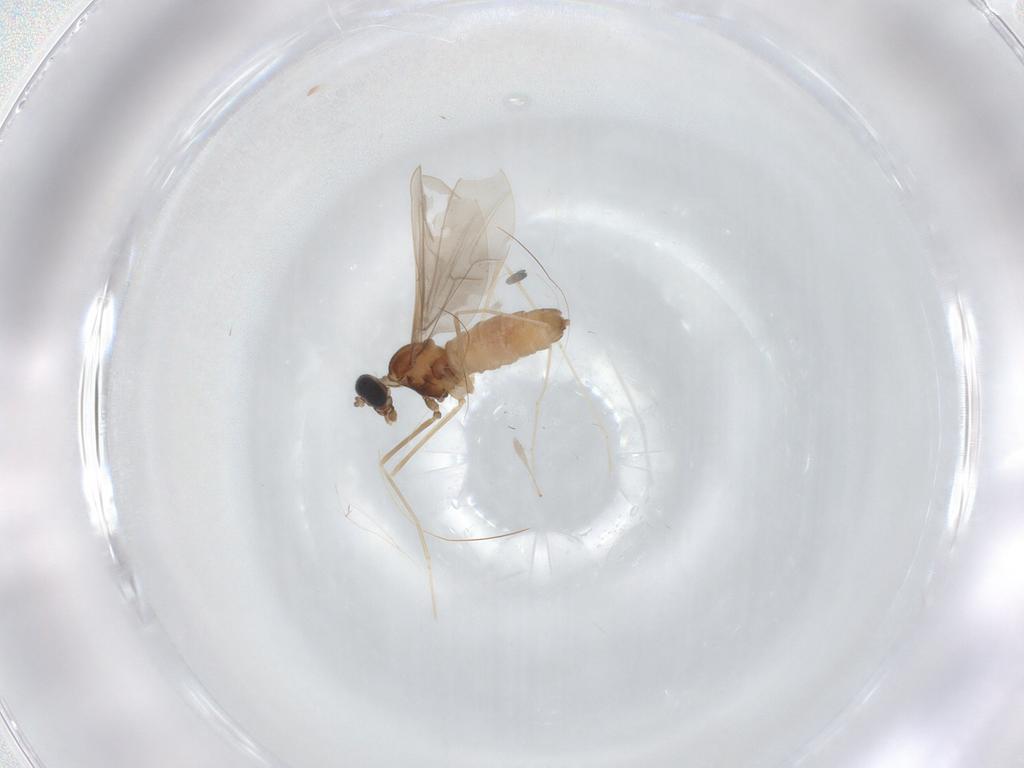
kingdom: Animalia
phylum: Arthropoda
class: Insecta
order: Diptera
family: Cecidomyiidae
